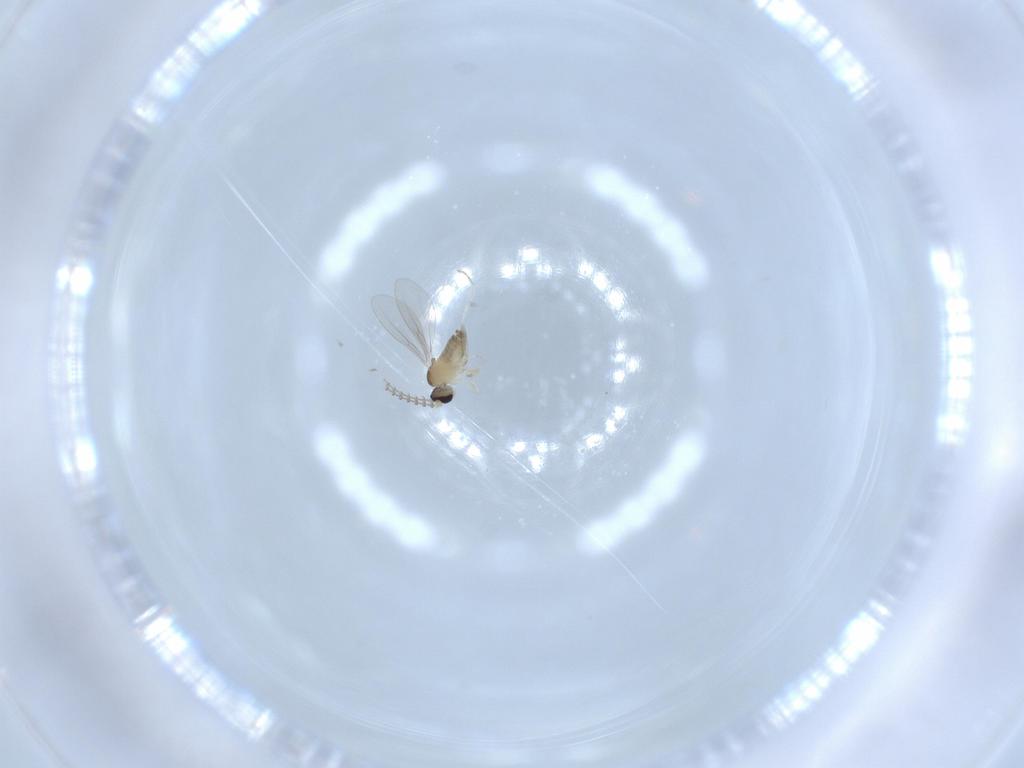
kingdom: Animalia
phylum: Arthropoda
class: Insecta
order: Diptera
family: Cecidomyiidae
